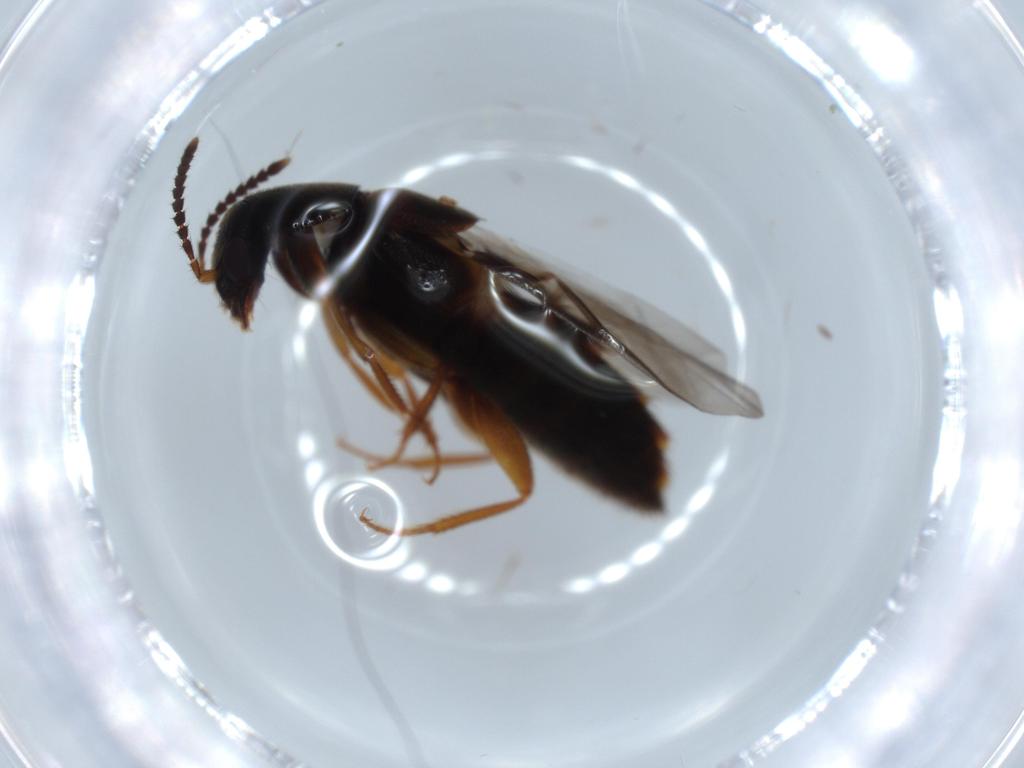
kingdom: Animalia
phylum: Arthropoda
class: Insecta
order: Coleoptera
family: Staphylinidae
